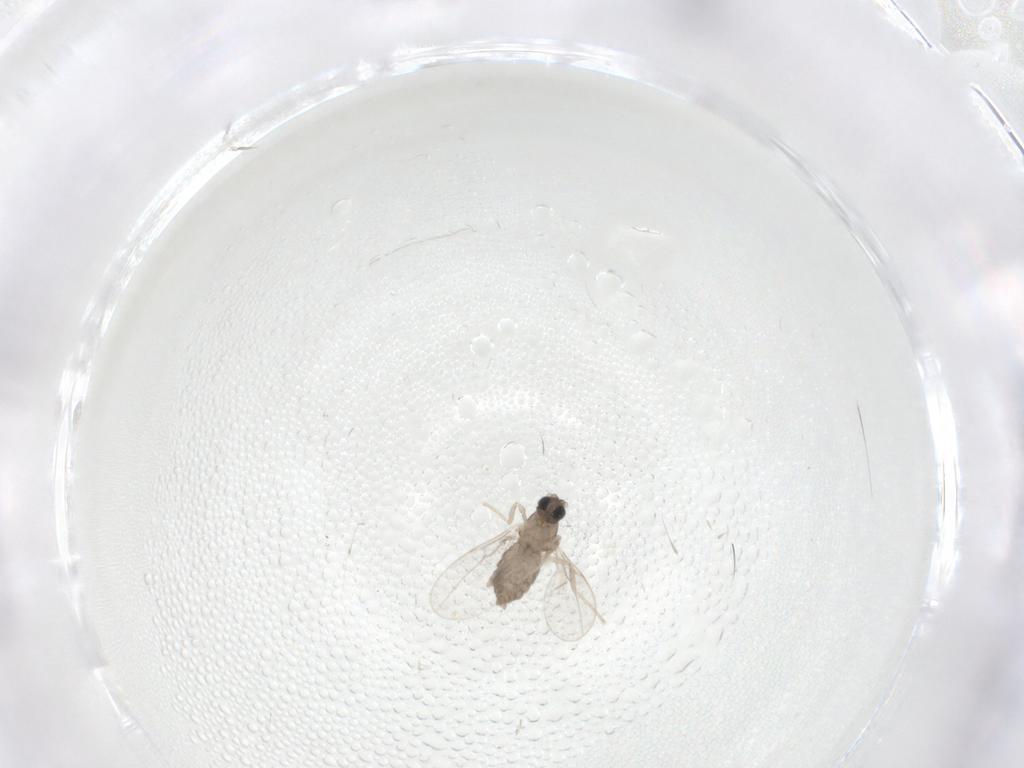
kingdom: Animalia
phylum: Arthropoda
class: Insecta
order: Diptera
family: Cecidomyiidae
